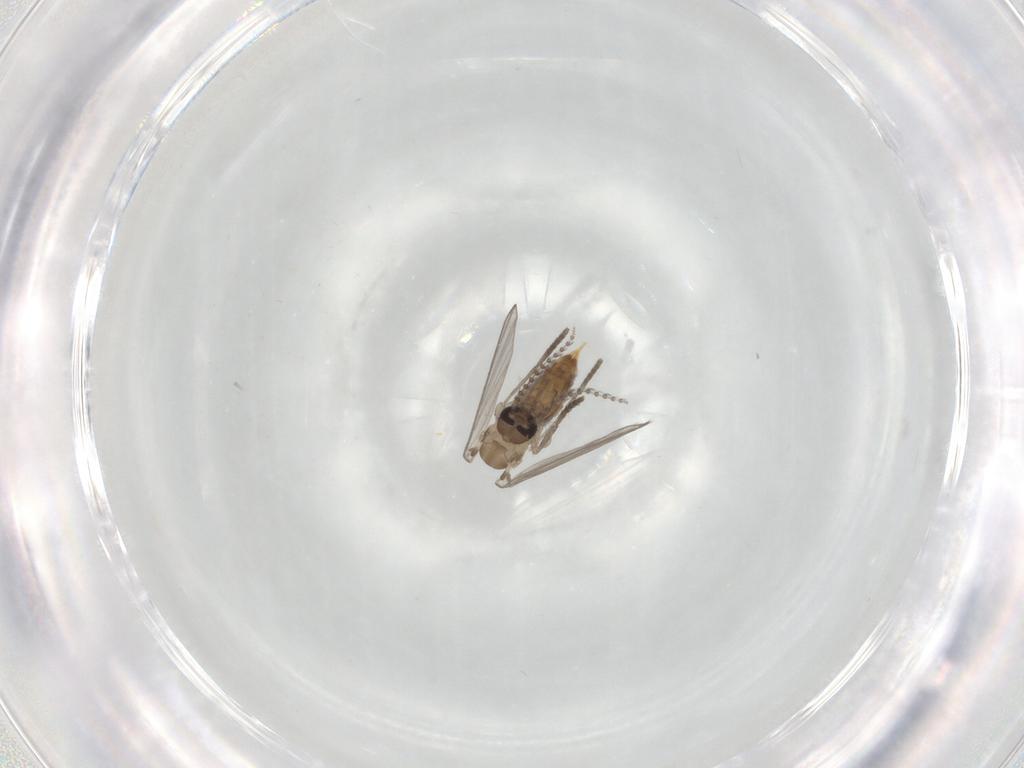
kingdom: Animalia
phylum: Arthropoda
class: Insecta
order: Diptera
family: Psychodidae
